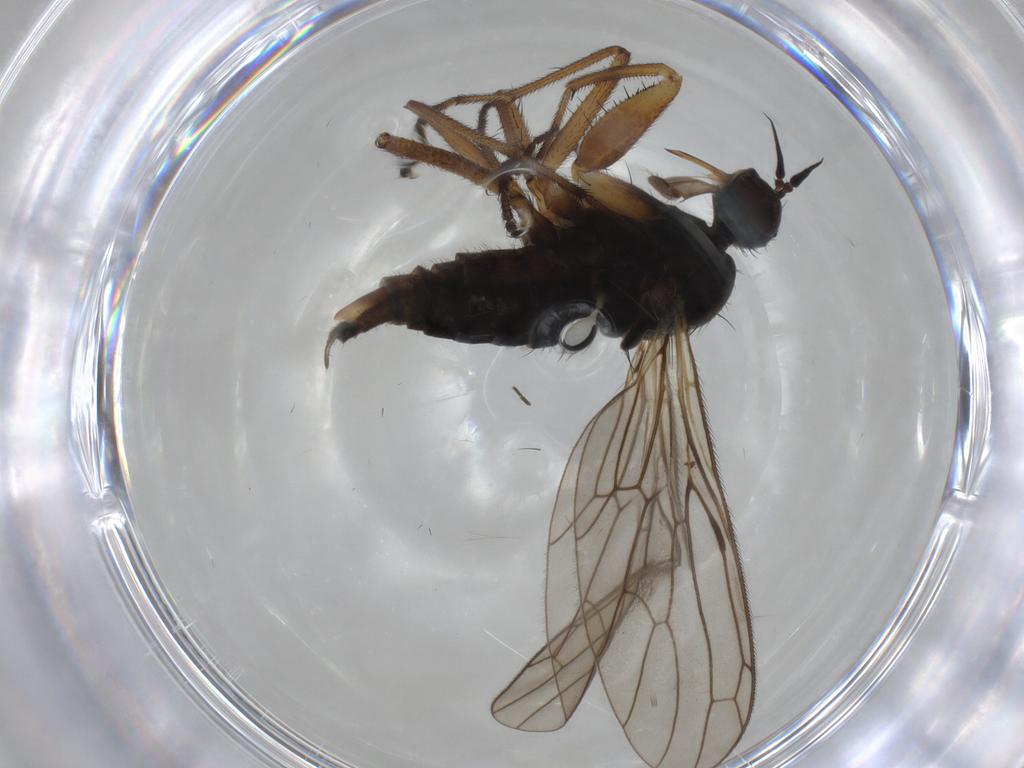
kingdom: Animalia
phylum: Arthropoda
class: Insecta
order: Diptera
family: Empididae
